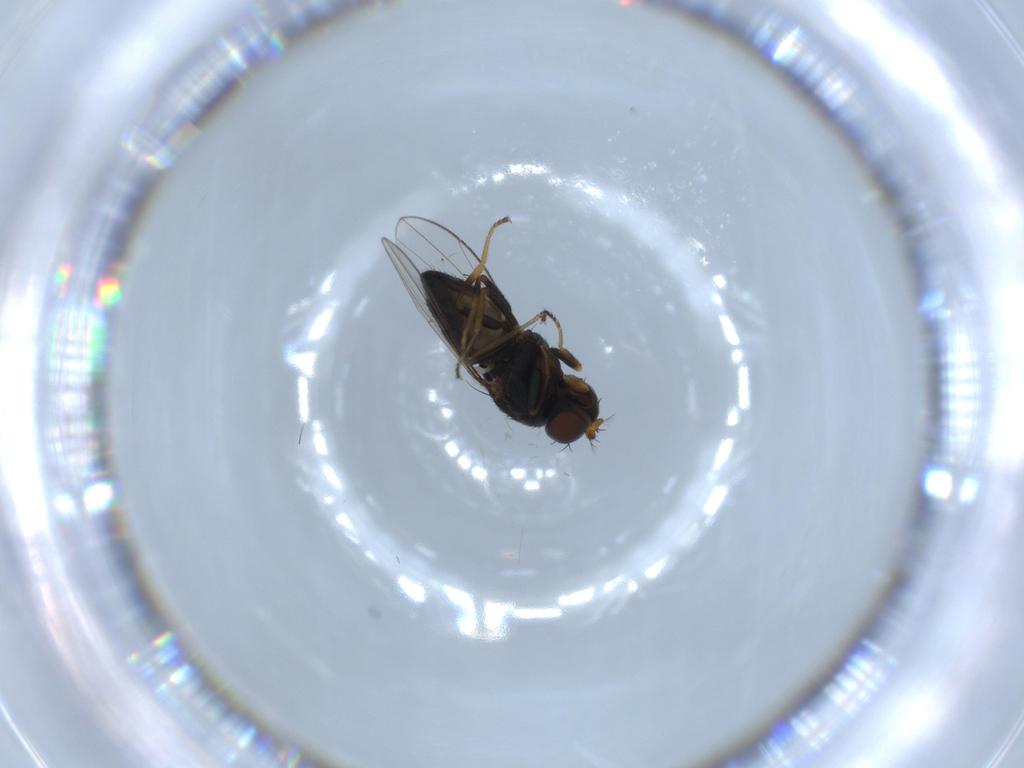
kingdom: Animalia
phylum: Arthropoda
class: Insecta
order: Diptera
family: Ephydridae
